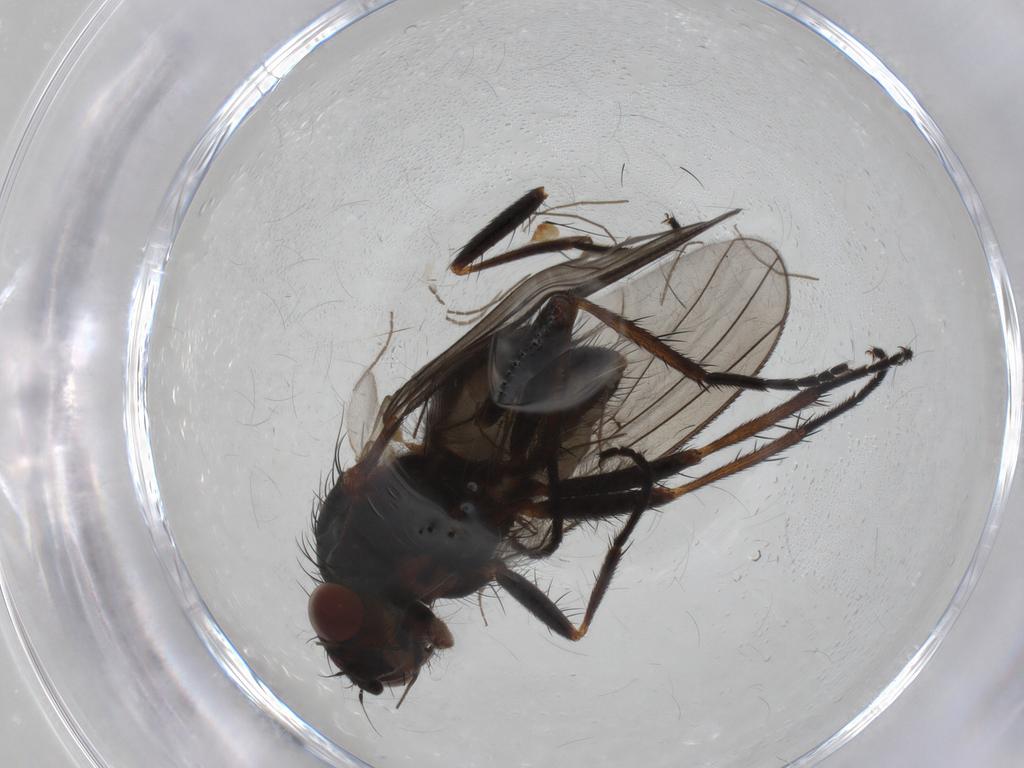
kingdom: Animalia
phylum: Arthropoda
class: Insecta
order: Diptera
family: Anthomyiidae
